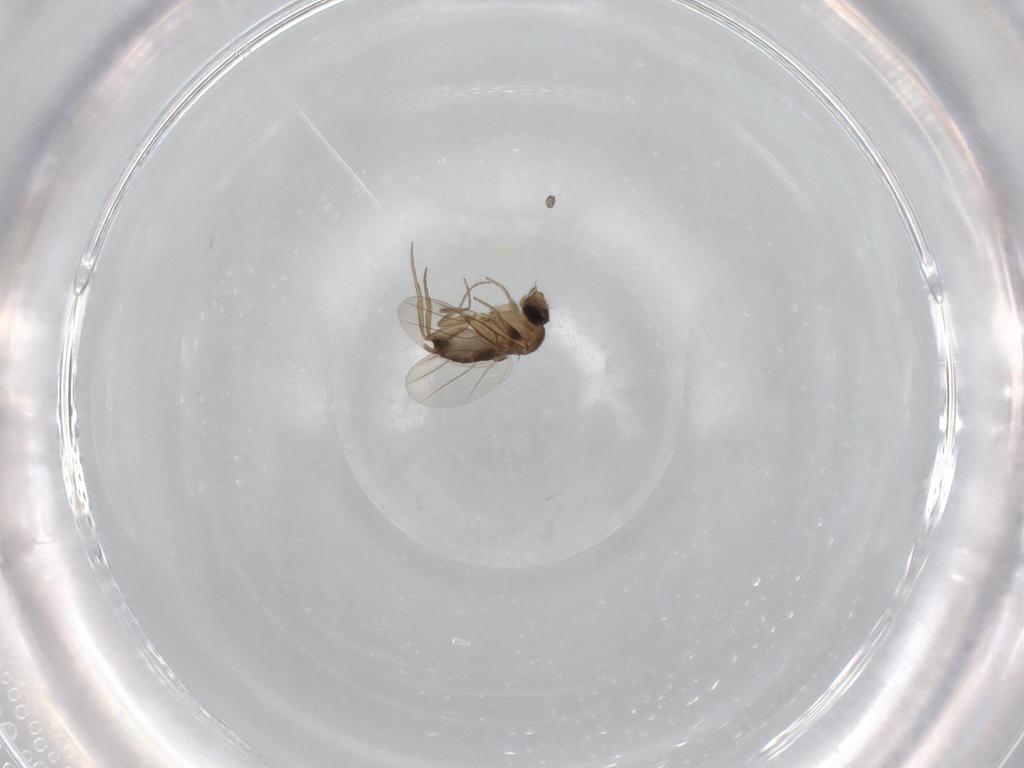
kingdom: Animalia
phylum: Arthropoda
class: Insecta
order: Diptera
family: Phoridae
